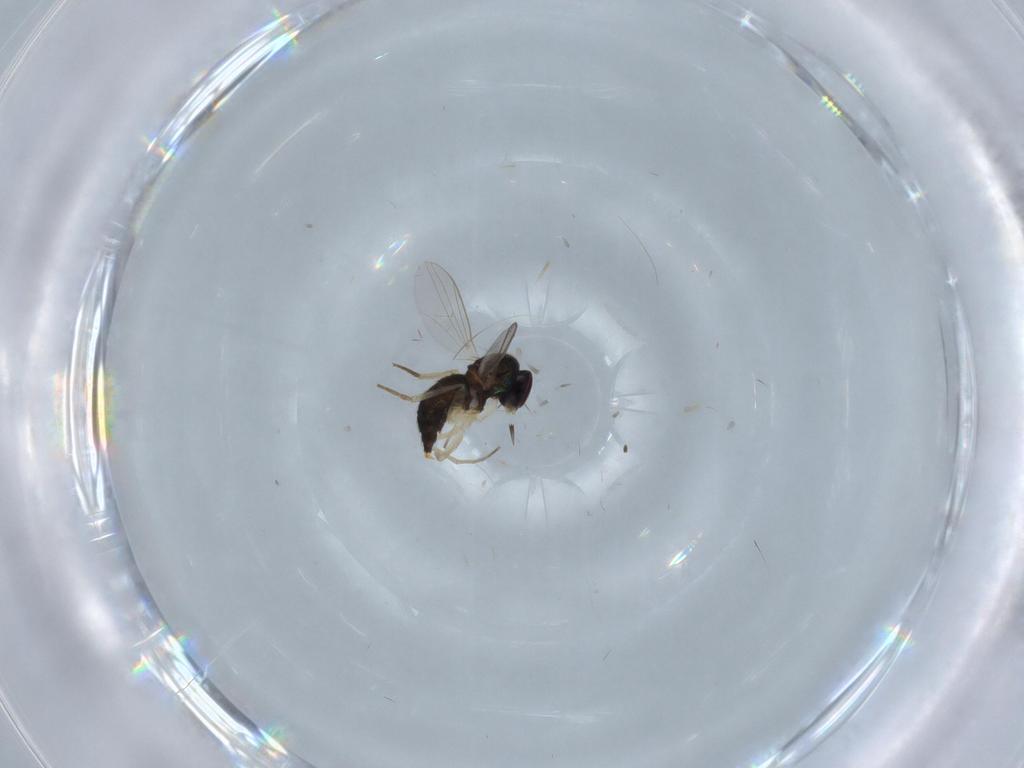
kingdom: Animalia
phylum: Arthropoda
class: Insecta
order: Diptera
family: Dolichopodidae
